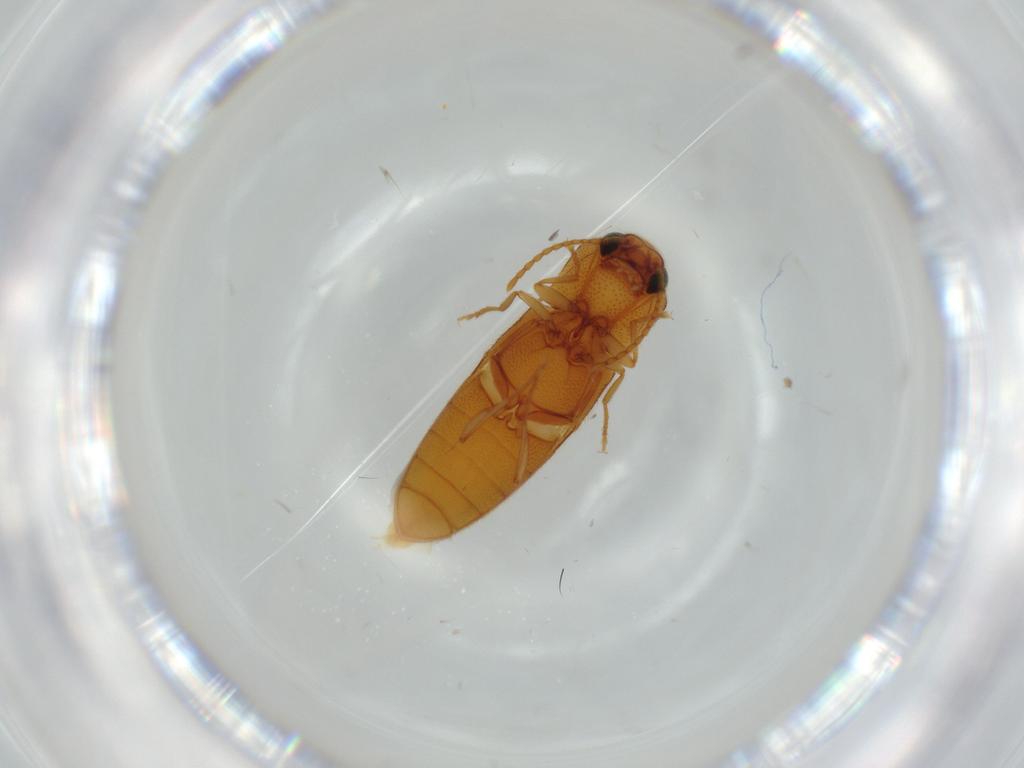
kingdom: Animalia
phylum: Arthropoda
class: Insecta
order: Coleoptera
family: Elateridae
